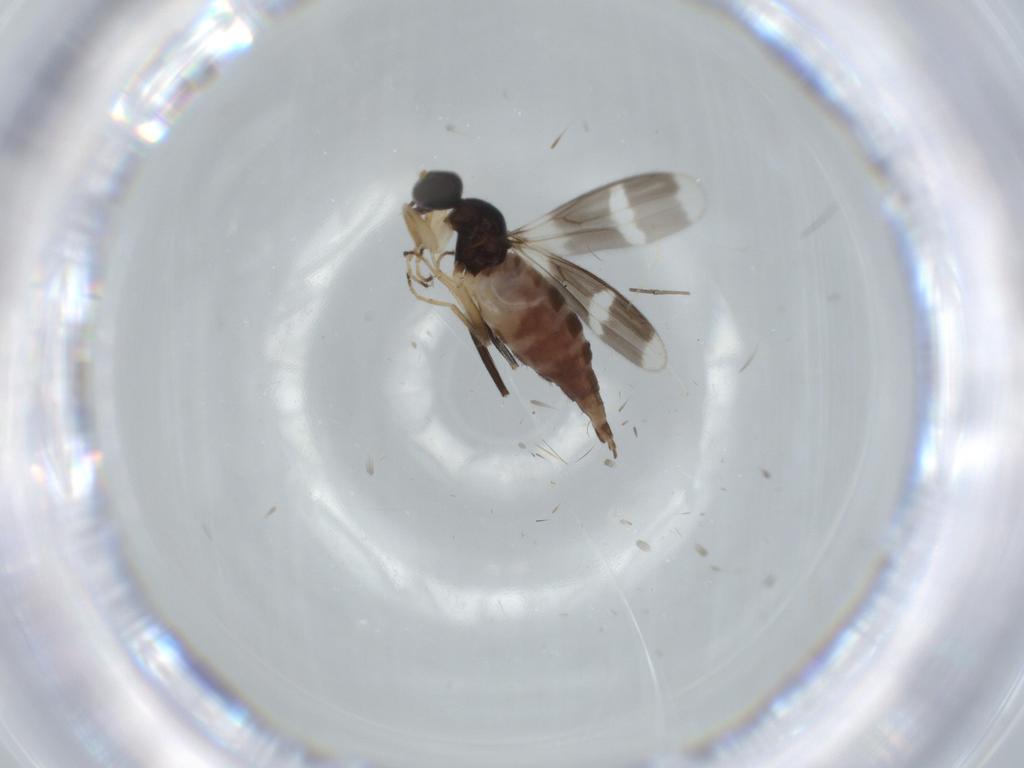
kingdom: Animalia
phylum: Arthropoda
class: Insecta
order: Diptera
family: Hybotidae
